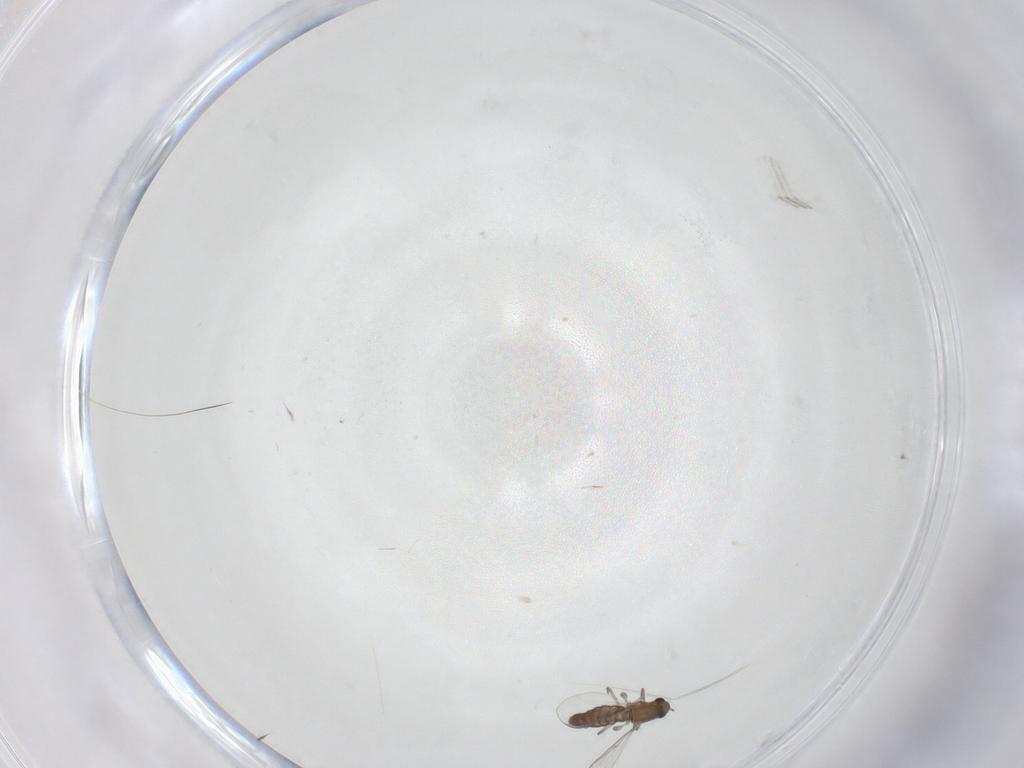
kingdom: Animalia
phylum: Arthropoda
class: Insecta
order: Diptera
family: Chironomidae
